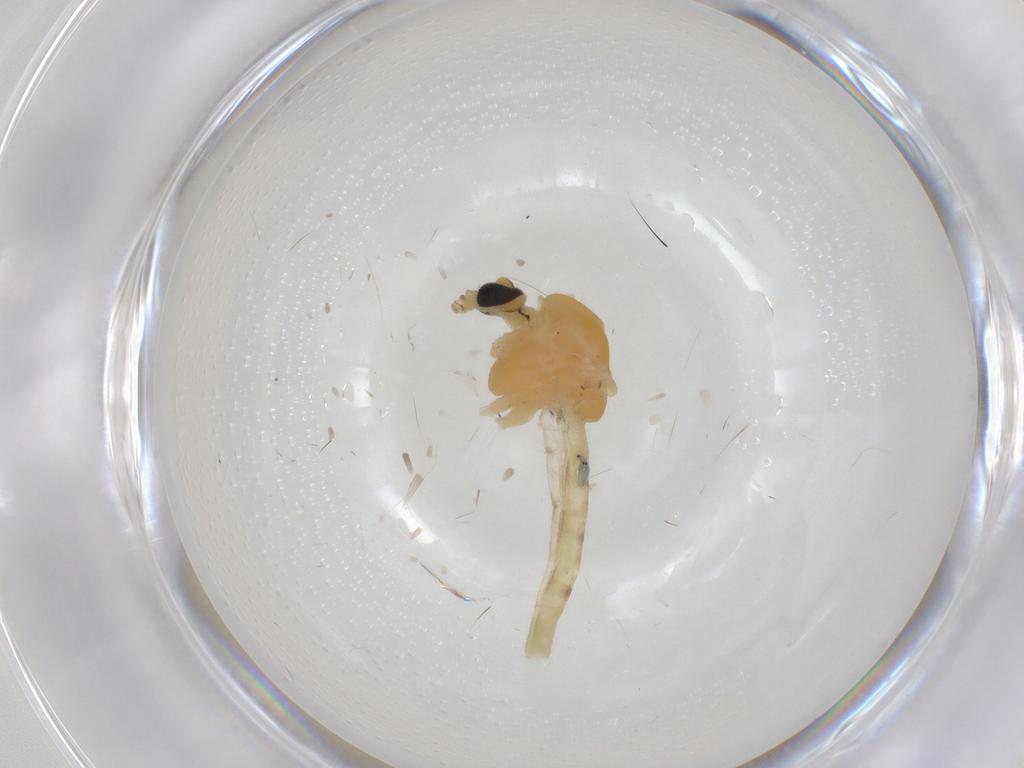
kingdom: Animalia
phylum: Arthropoda
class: Insecta
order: Diptera
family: Chironomidae
